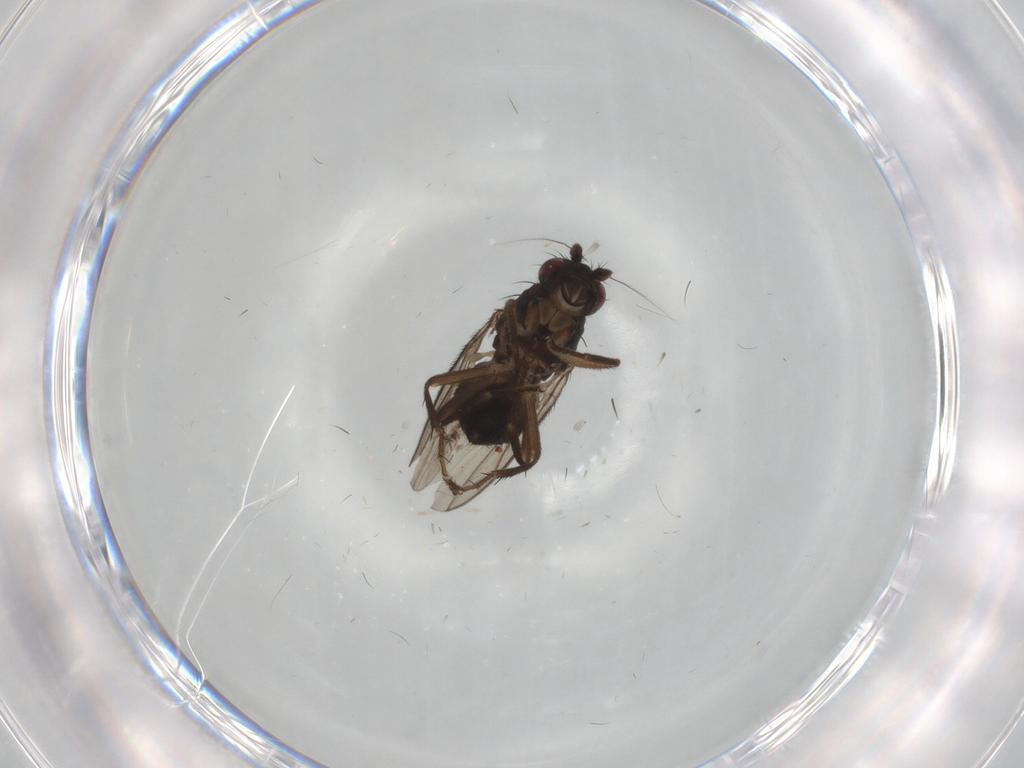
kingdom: Animalia
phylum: Arthropoda
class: Insecta
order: Diptera
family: Sphaeroceridae
